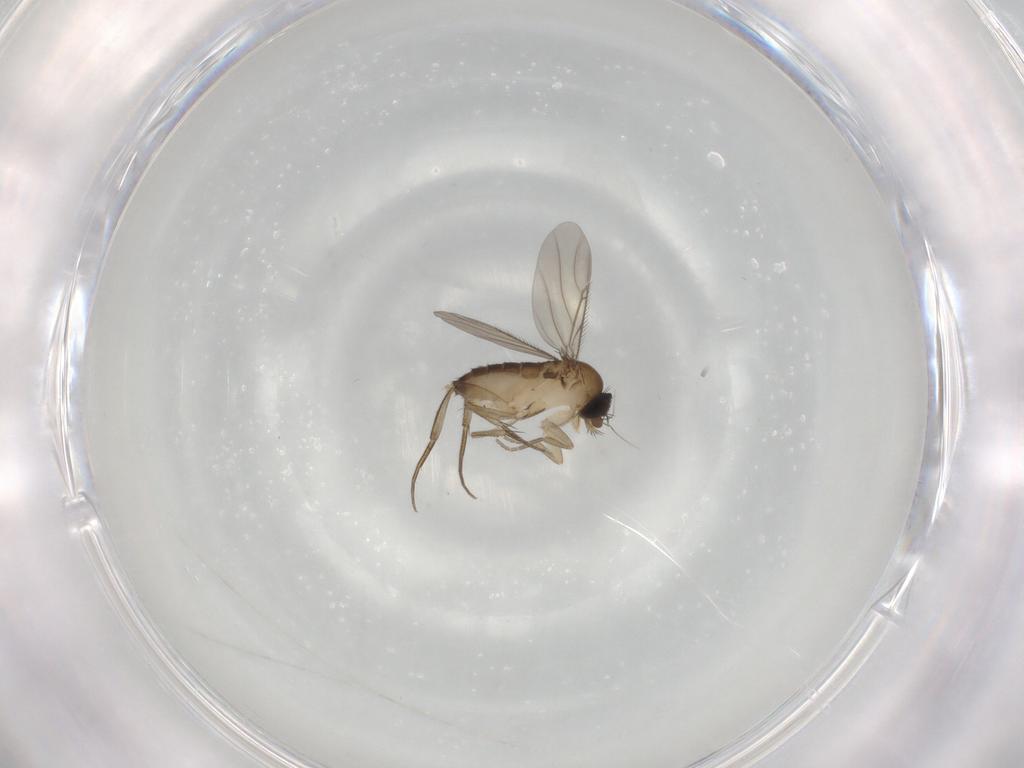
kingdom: Animalia
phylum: Arthropoda
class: Insecta
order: Diptera
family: Phoridae
